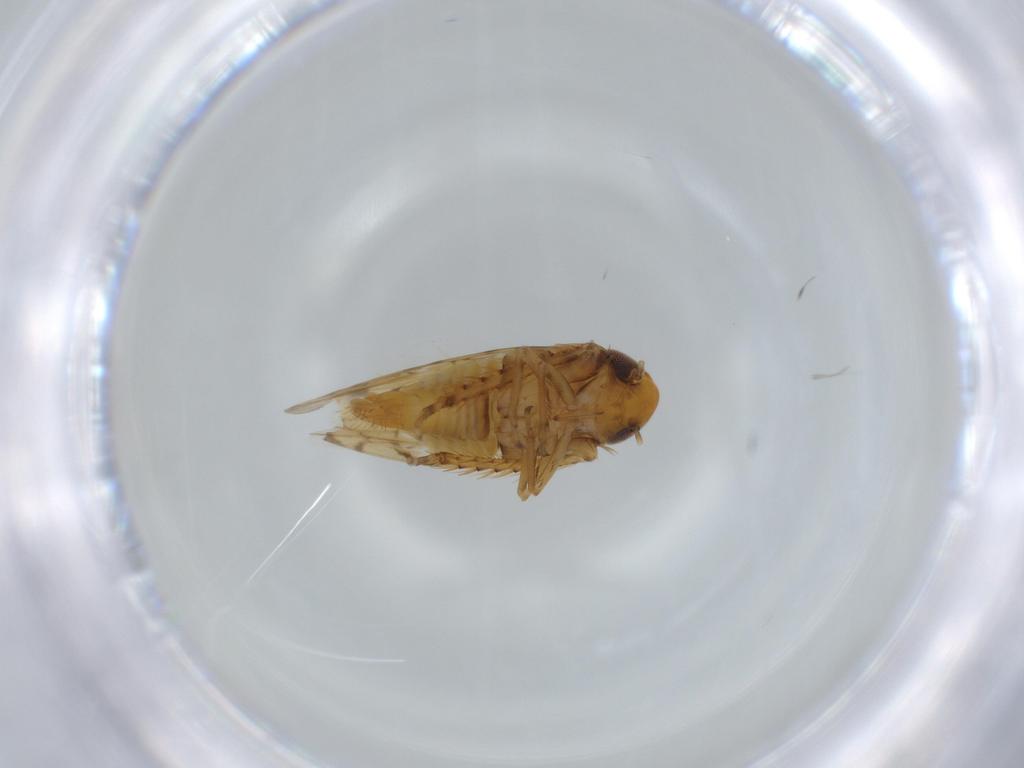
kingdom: Animalia
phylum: Arthropoda
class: Insecta
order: Hemiptera
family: Cicadellidae
